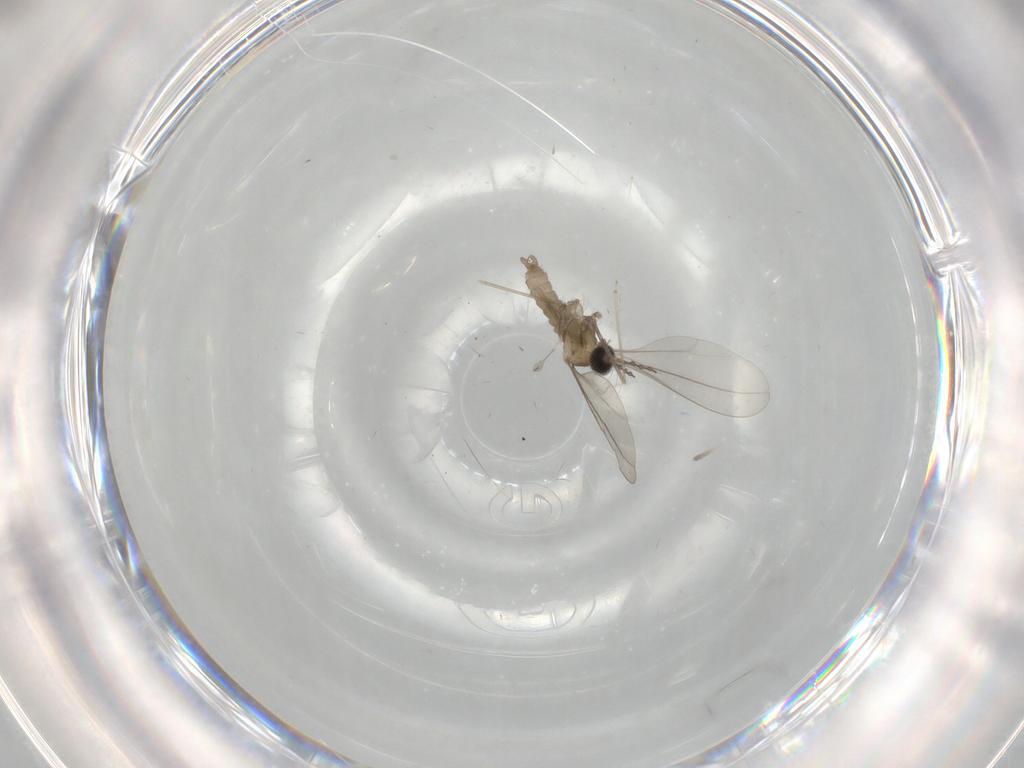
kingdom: Animalia
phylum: Arthropoda
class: Insecta
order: Diptera
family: Cecidomyiidae
